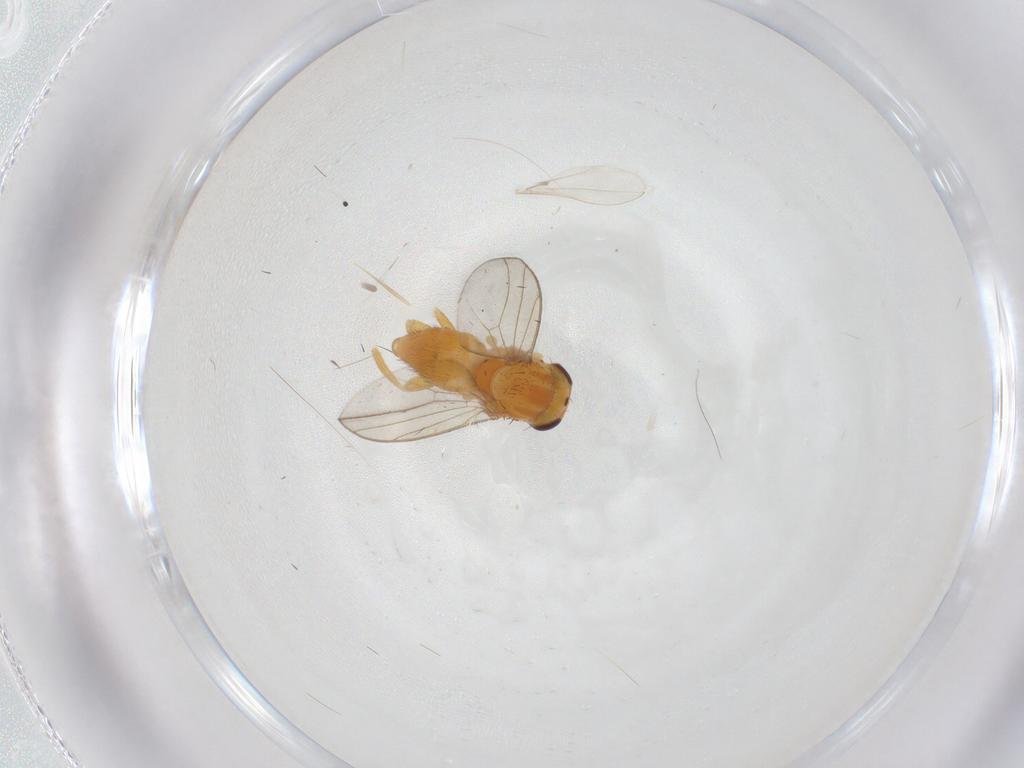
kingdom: Animalia
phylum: Arthropoda
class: Insecta
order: Diptera
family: Chloropidae
